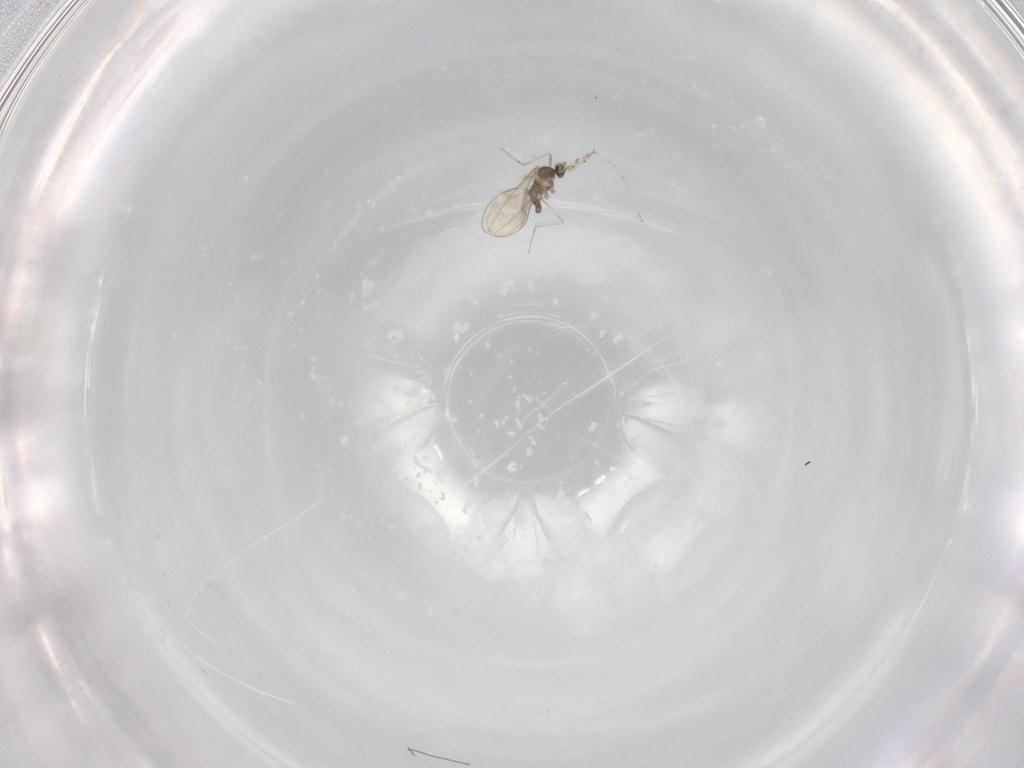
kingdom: Animalia
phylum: Arthropoda
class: Insecta
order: Diptera
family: Cecidomyiidae
